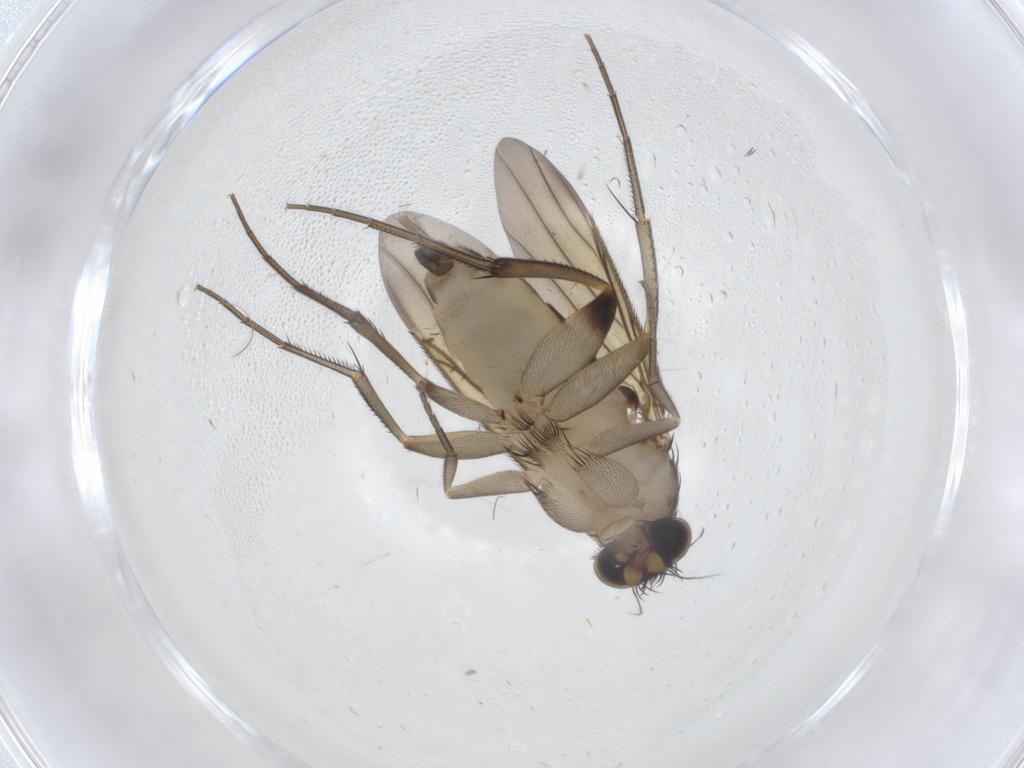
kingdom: Animalia
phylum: Arthropoda
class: Insecta
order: Diptera
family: Phoridae
